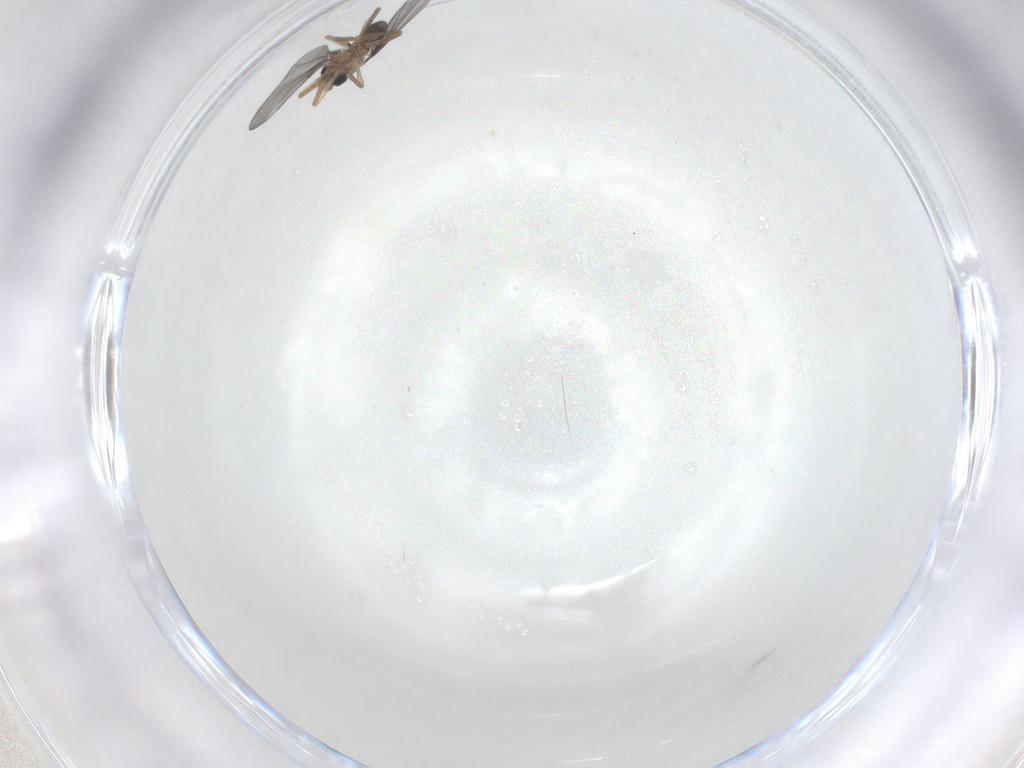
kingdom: Animalia
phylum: Arthropoda
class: Insecta
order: Diptera
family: Phoridae
